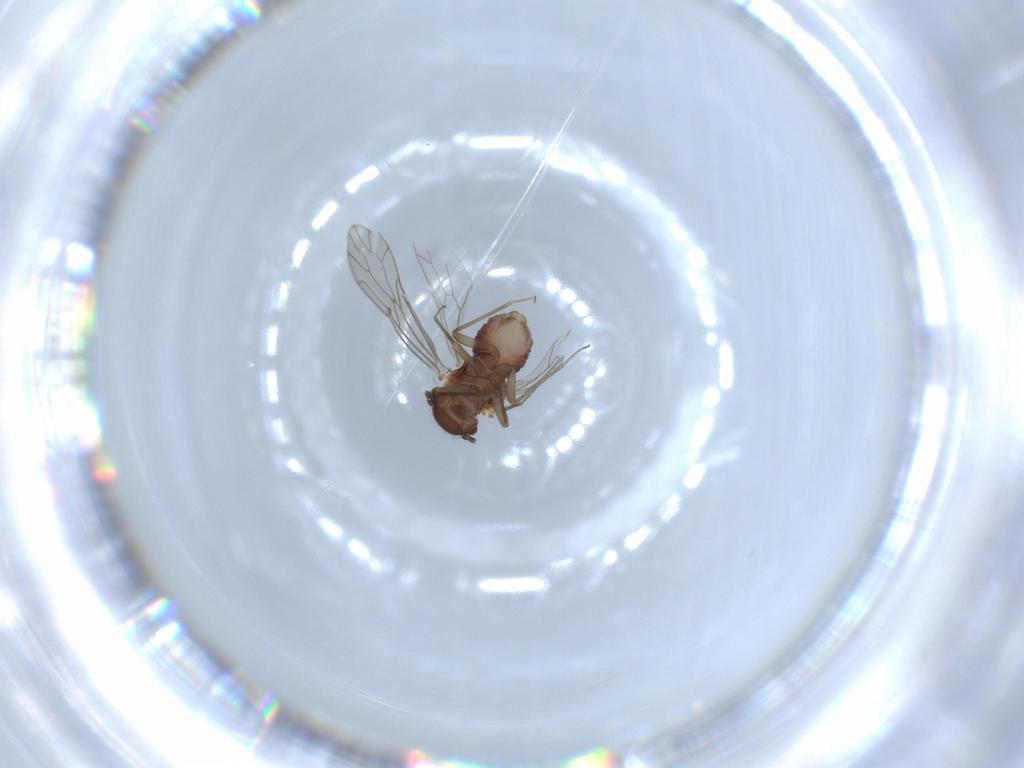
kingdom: Animalia
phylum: Arthropoda
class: Insecta
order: Psocodea
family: Ectopsocidae
